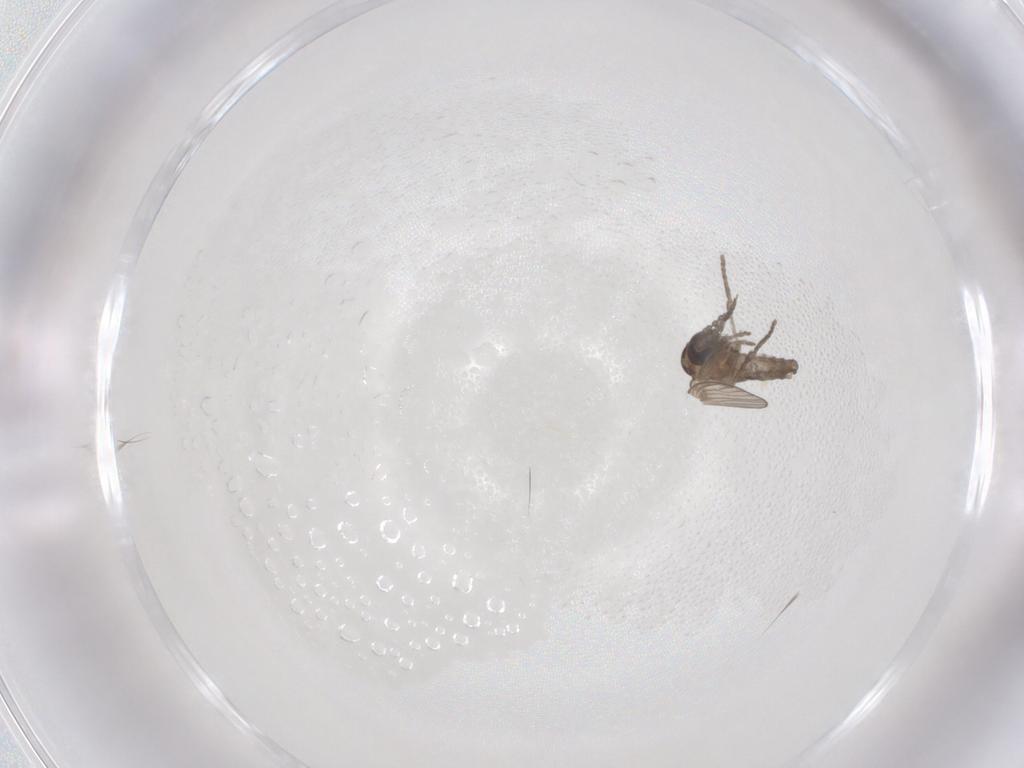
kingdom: Animalia
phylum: Arthropoda
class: Insecta
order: Diptera
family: Psychodidae
